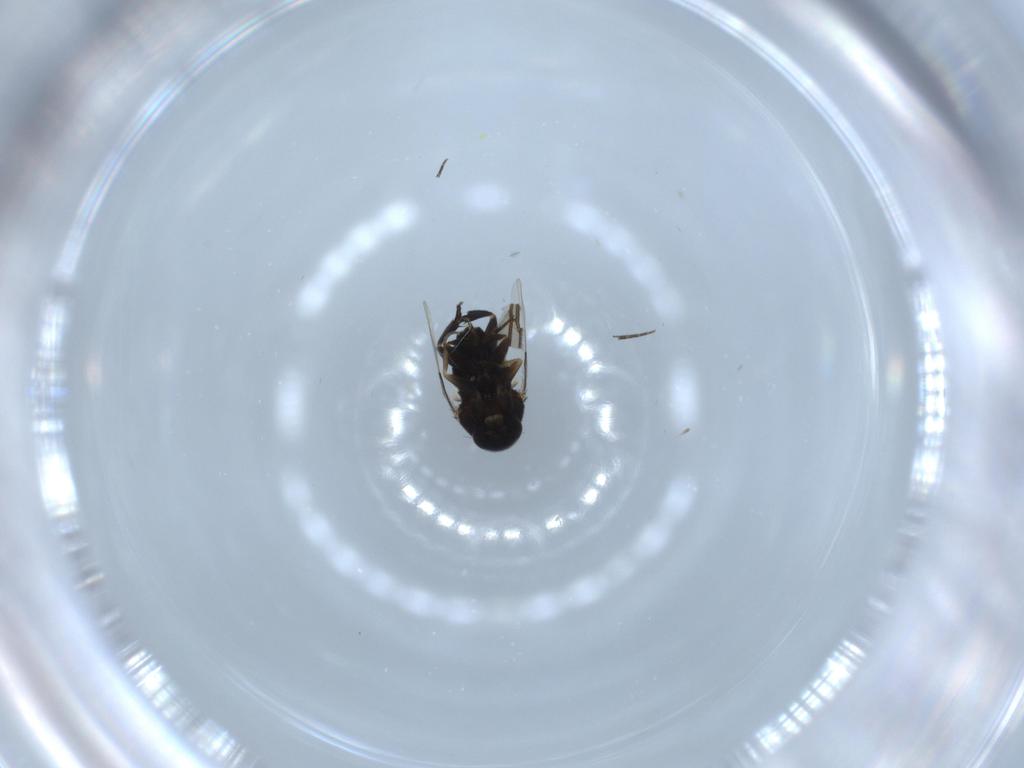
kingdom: Animalia
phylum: Arthropoda
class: Insecta
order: Diptera
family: Phoridae
